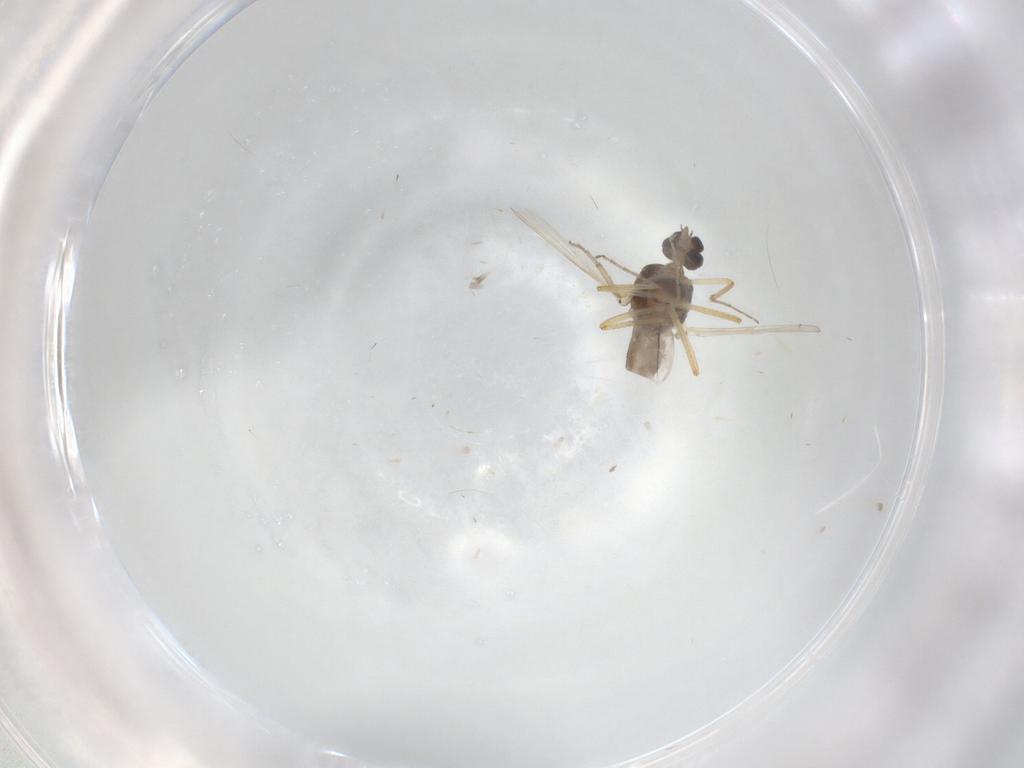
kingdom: Animalia
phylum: Arthropoda
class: Insecta
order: Diptera
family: Ceratopogonidae
